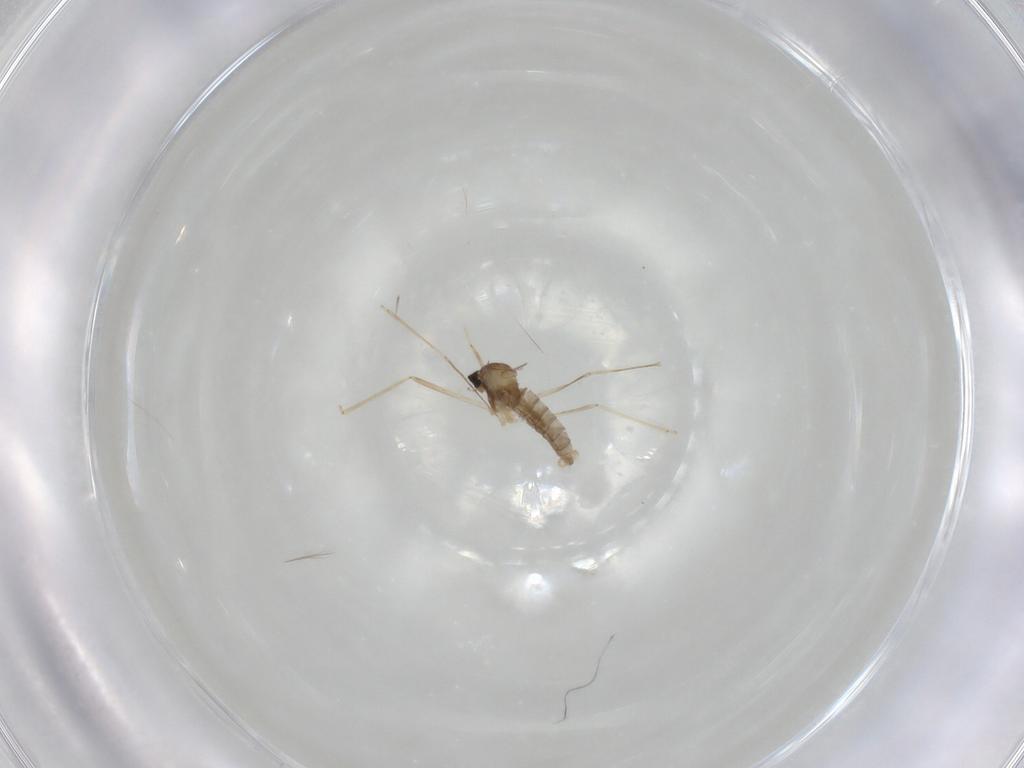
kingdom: Animalia
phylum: Arthropoda
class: Insecta
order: Diptera
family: Cecidomyiidae
